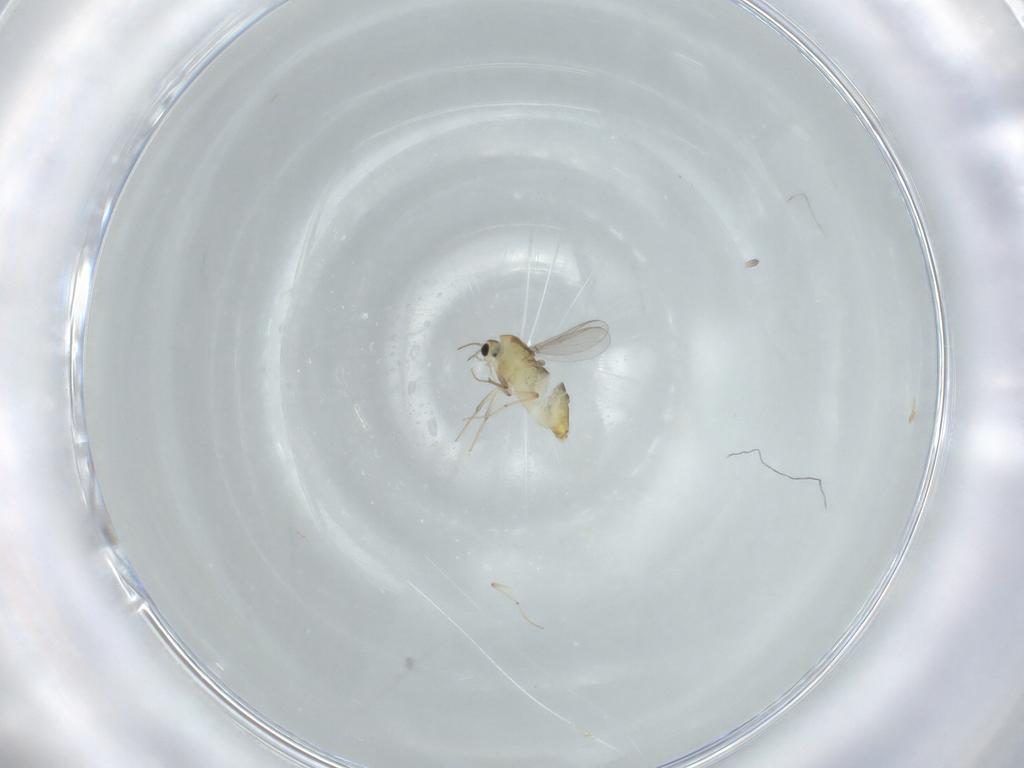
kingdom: Animalia
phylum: Arthropoda
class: Insecta
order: Diptera
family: Chironomidae
